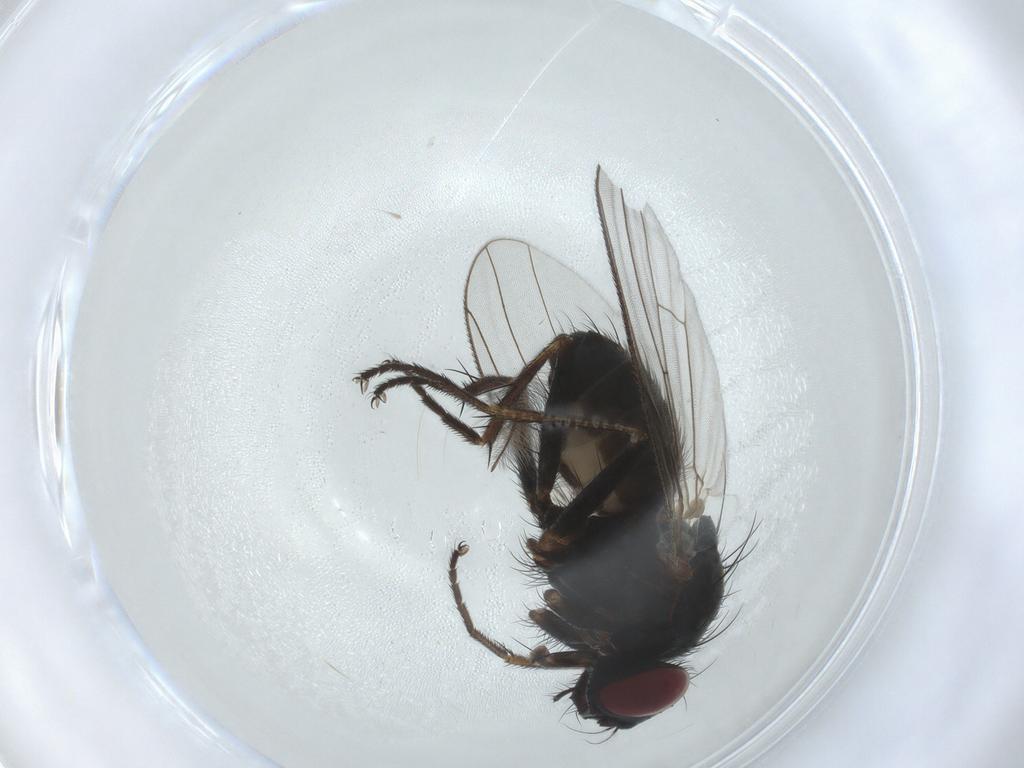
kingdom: Animalia
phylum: Arthropoda
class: Insecta
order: Diptera
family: Muscidae
